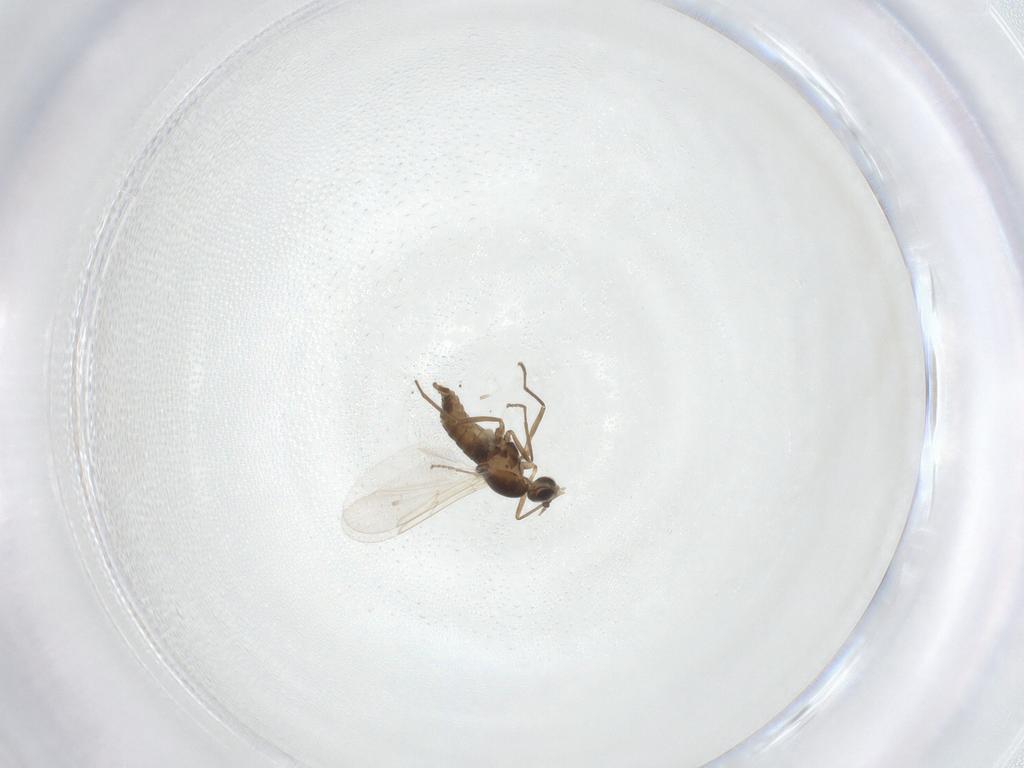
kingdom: Animalia
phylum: Arthropoda
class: Insecta
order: Diptera
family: Cecidomyiidae
